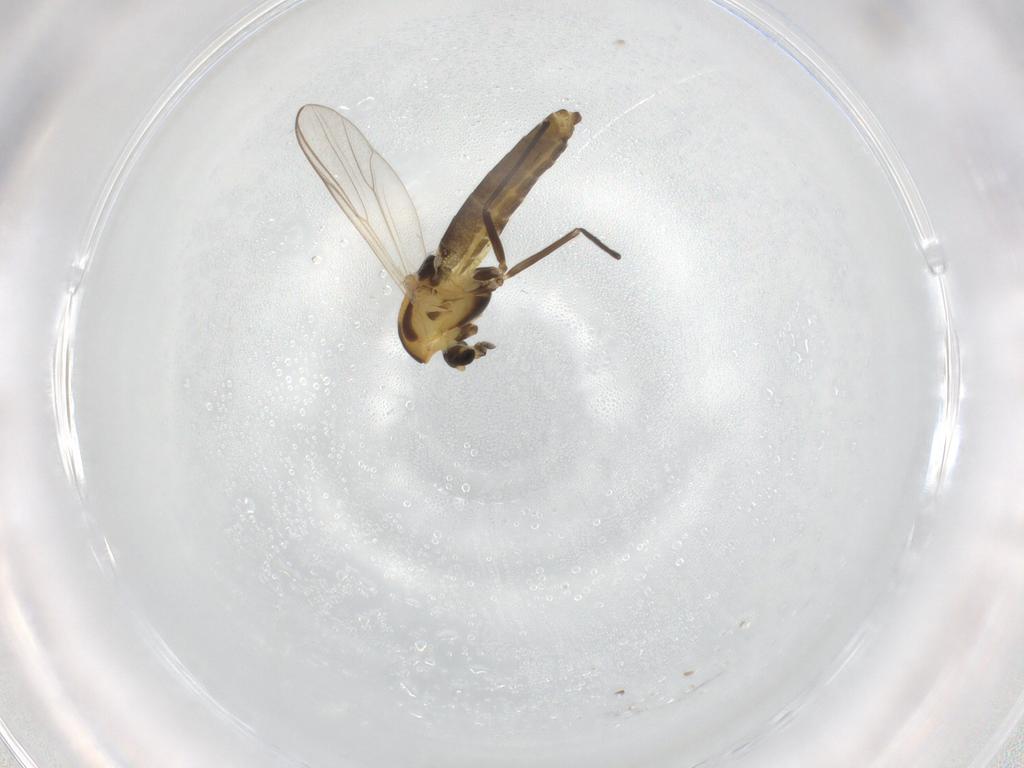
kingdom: Animalia
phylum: Arthropoda
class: Insecta
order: Diptera
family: Chironomidae
